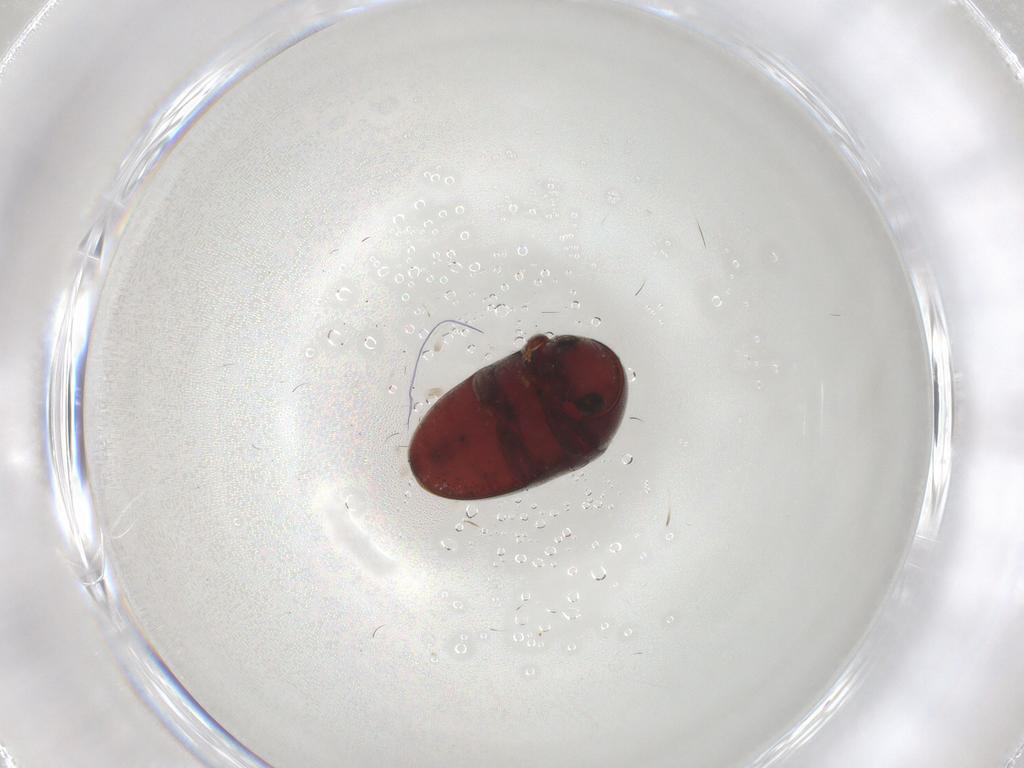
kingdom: Animalia
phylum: Arthropoda
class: Insecta
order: Coleoptera
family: Ptinidae
